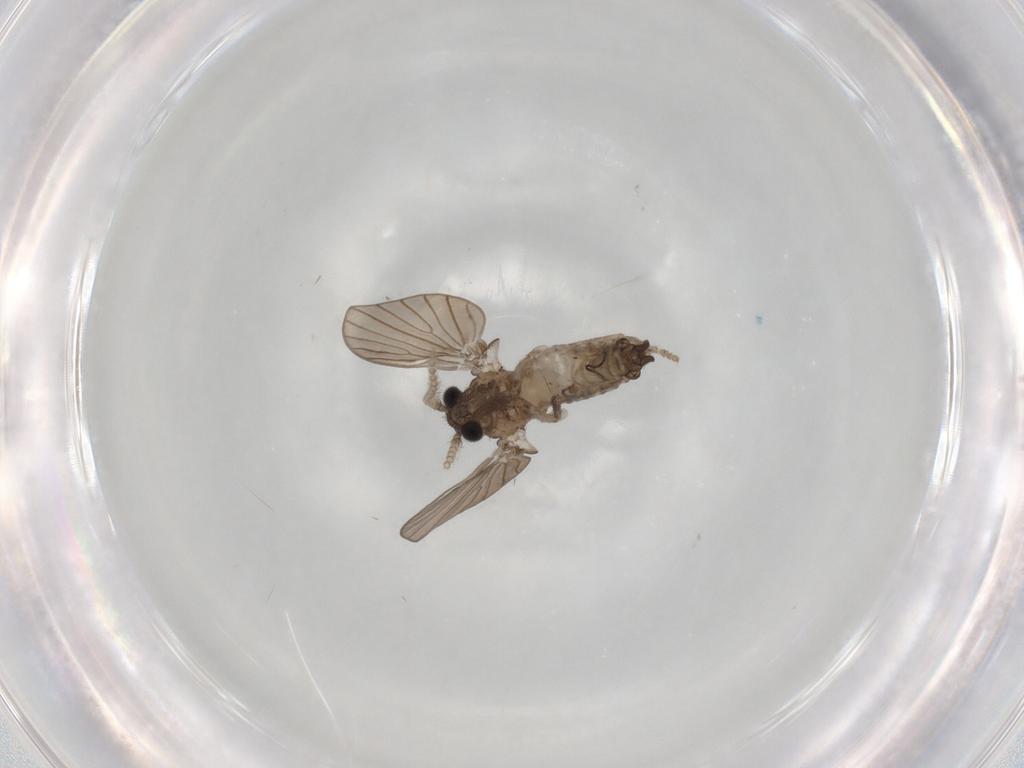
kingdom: Animalia
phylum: Arthropoda
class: Insecta
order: Diptera
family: Psychodidae
